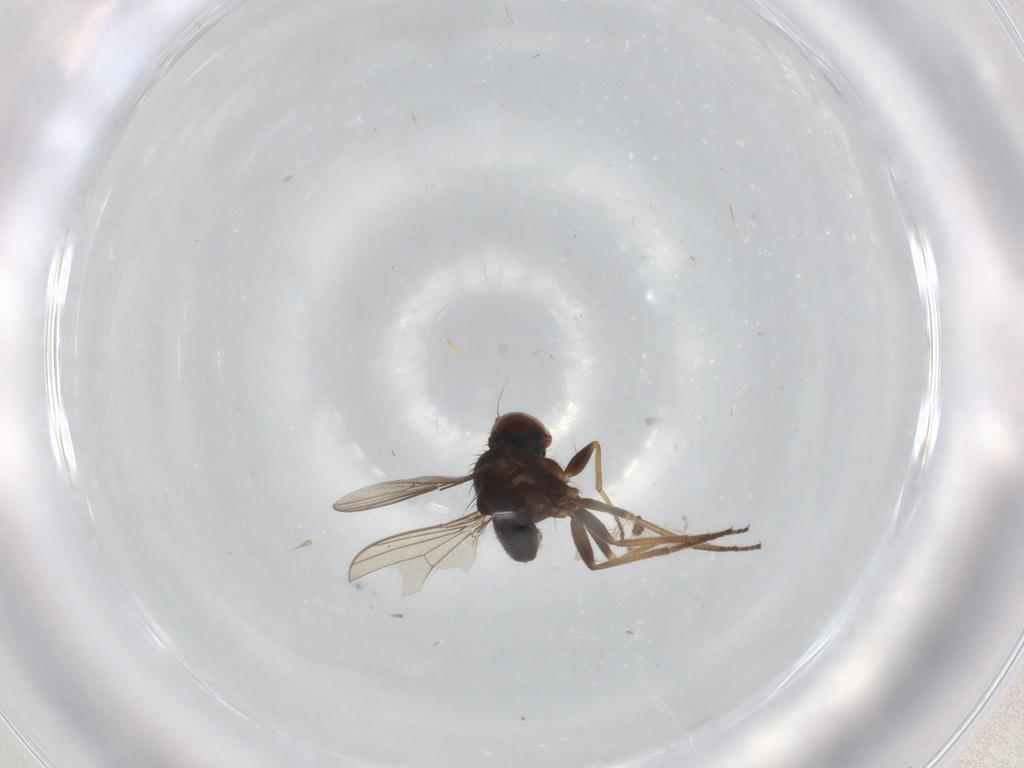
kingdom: Animalia
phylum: Arthropoda
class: Insecta
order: Diptera
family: Dolichopodidae
